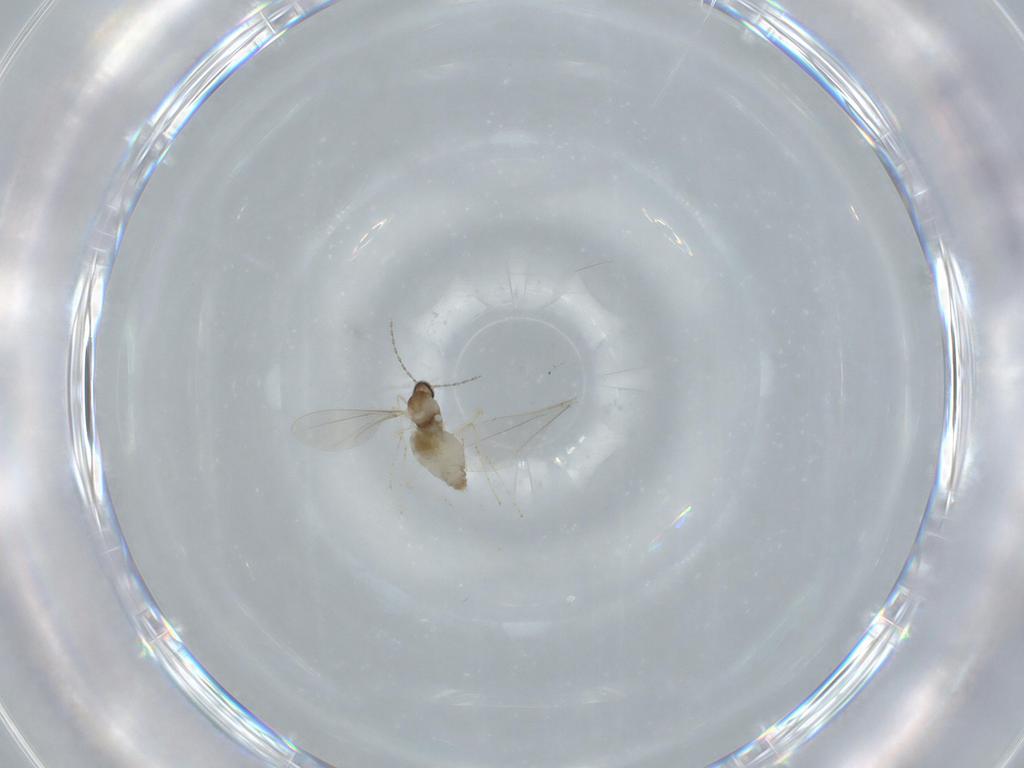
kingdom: Animalia
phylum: Arthropoda
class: Insecta
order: Diptera
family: Cecidomyiidae
